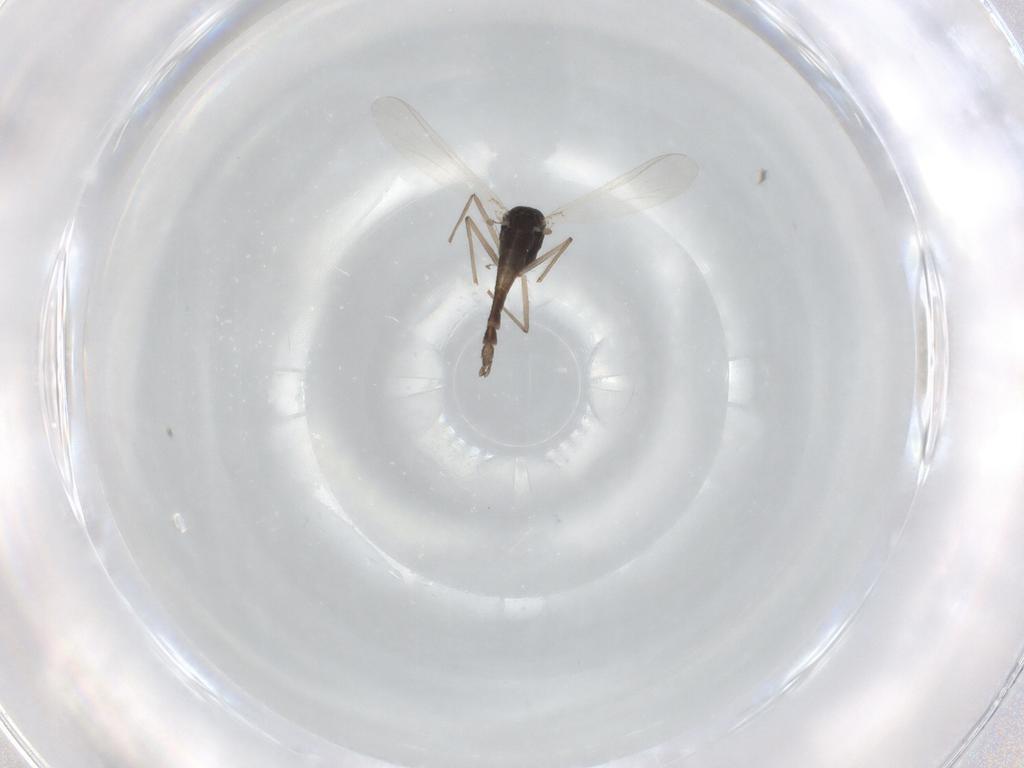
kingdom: Animalia
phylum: Arthropoda
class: Insecta
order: Diptera
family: Chironomidae
